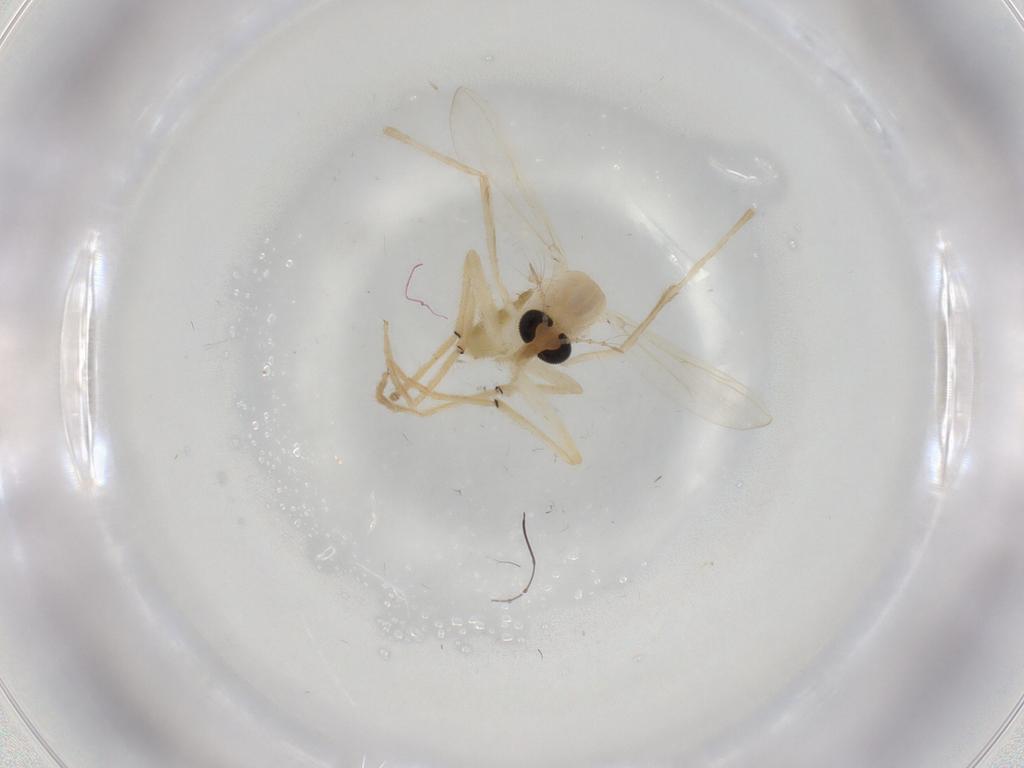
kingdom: Animalia
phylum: Arthropoda
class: Insecta
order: Diptera
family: Chironomidae
